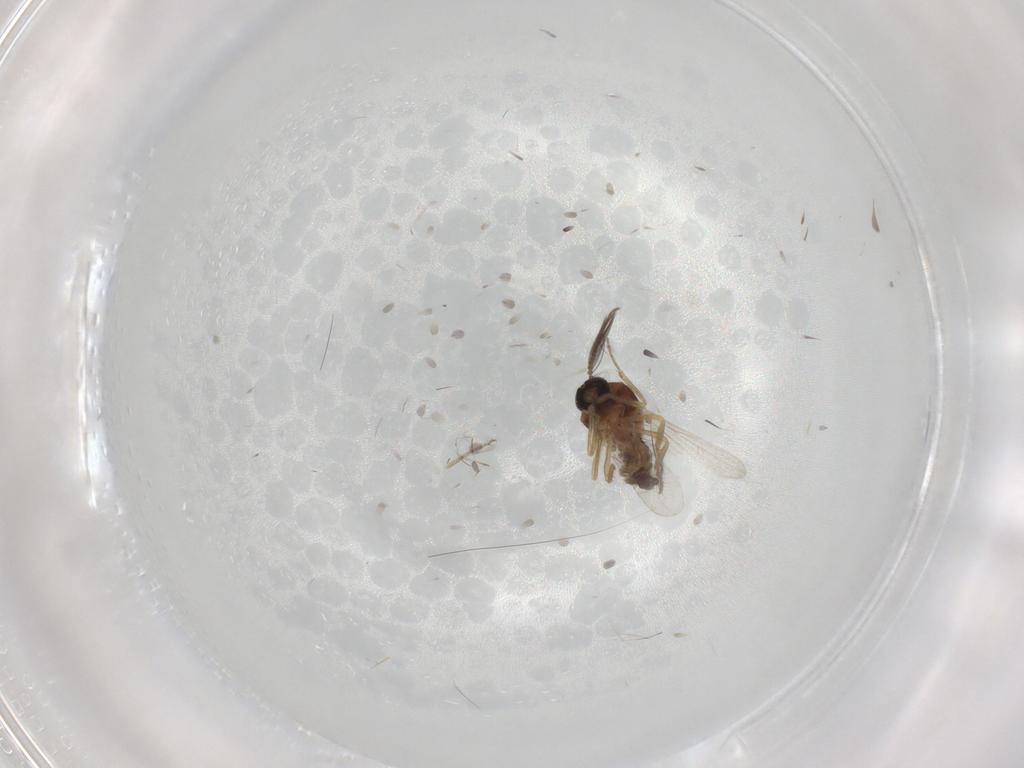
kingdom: Animalia
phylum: Arthropoda
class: Insecta
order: Diptera
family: Ceratopogonidae
